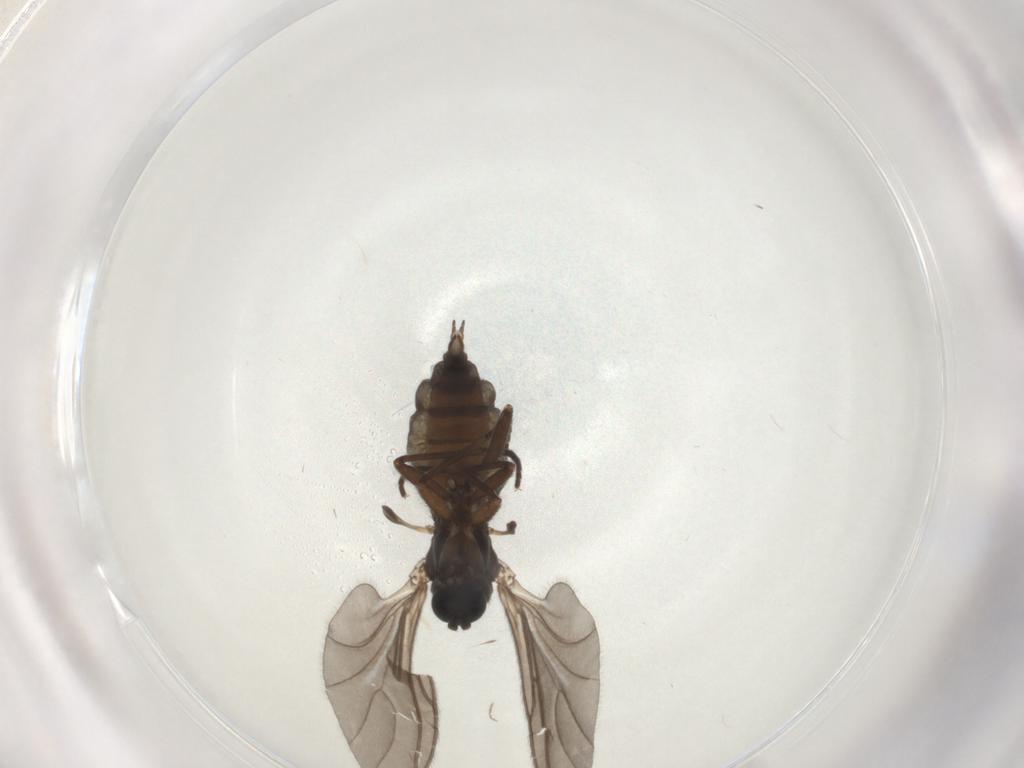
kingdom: Animalia
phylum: Arthropoda
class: Insecta
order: Diptera
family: Sciaridae
